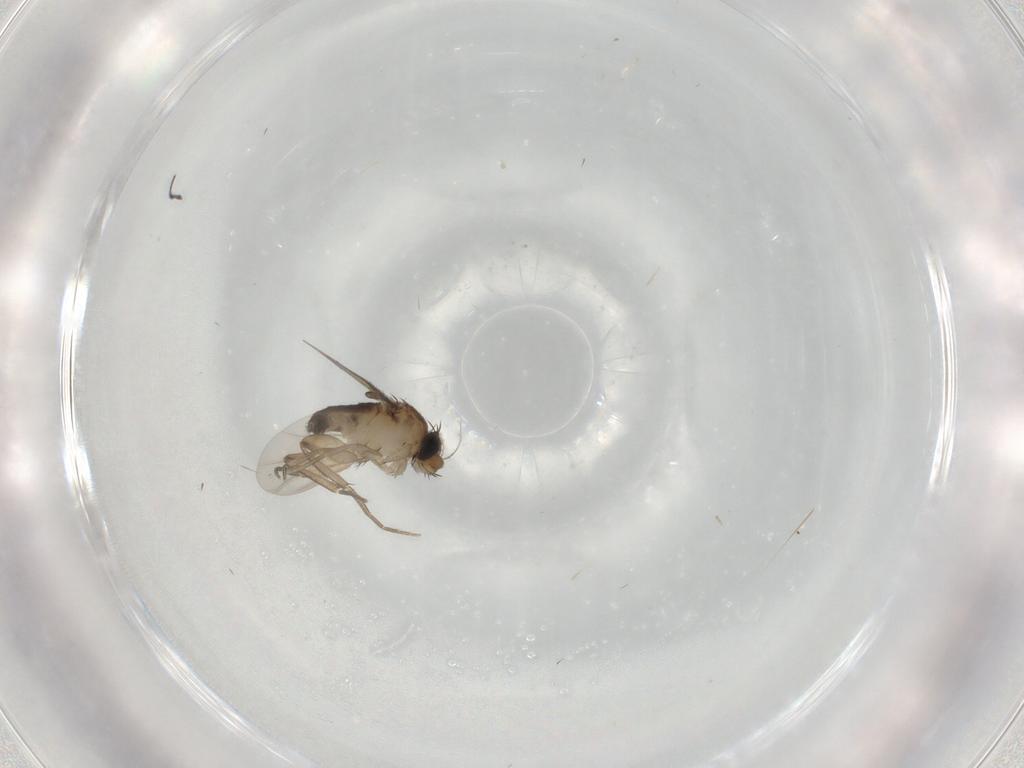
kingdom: Animalia
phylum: Arthropoda
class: Insecta
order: Diptera
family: Phoridae
